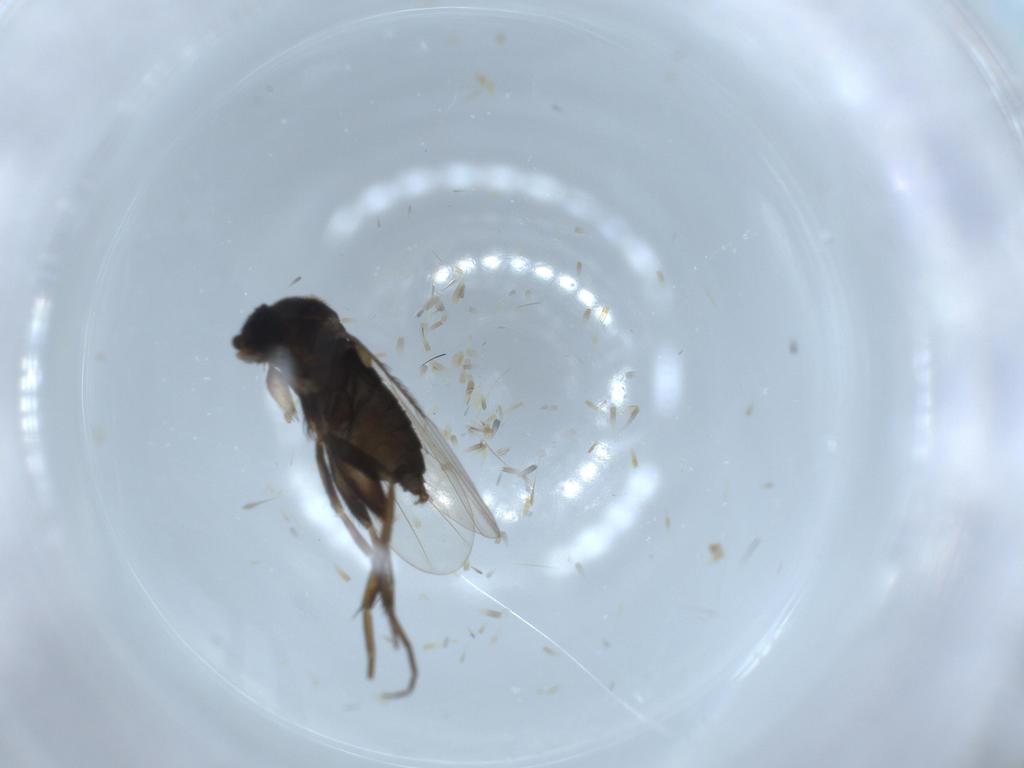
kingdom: Animalia
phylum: Arthropoda
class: Insecta
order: Diptera
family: Phoridae
